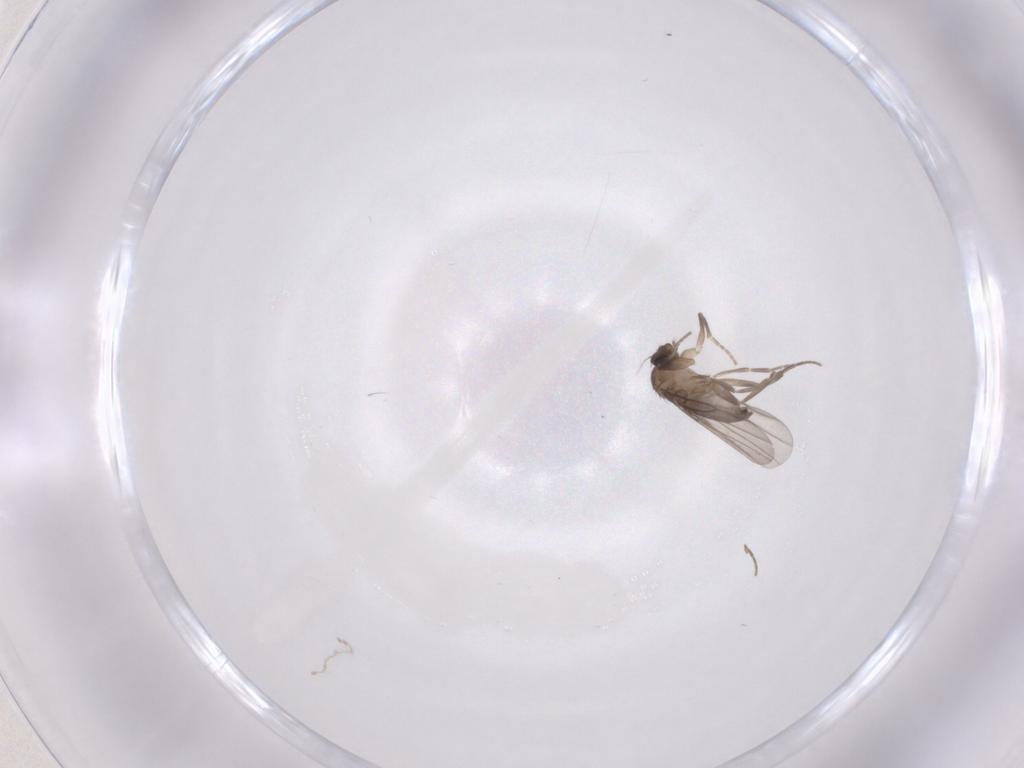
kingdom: Animalia
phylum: Arthropoda
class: Insecta
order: Diptera
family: Phoridae
